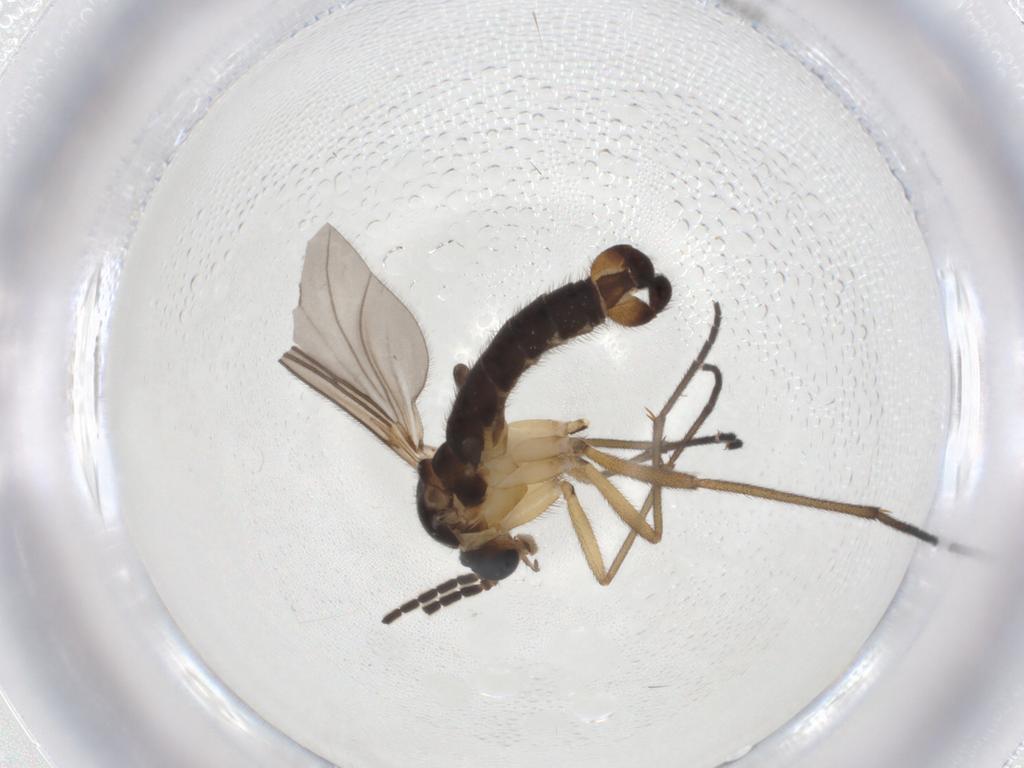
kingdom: Animalia
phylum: Arthropoda
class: Insecta
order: Diptera
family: Sciaridae
